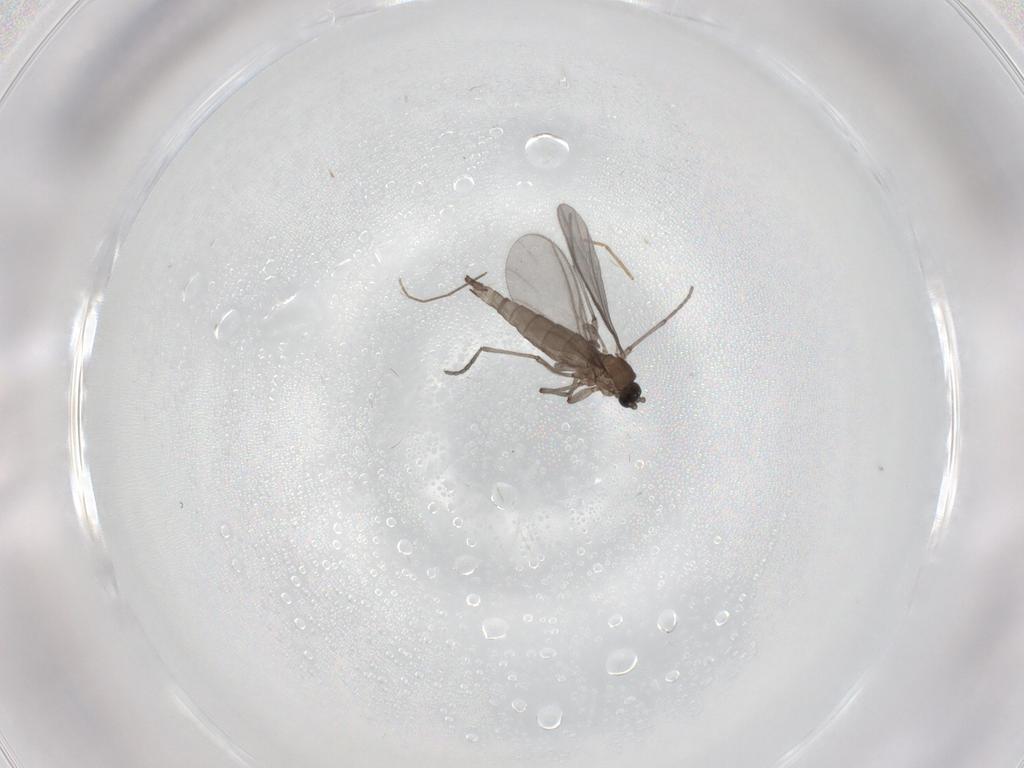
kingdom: Animalia
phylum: Arthropoda
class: Insecta
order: Diptera
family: Sciaridae
